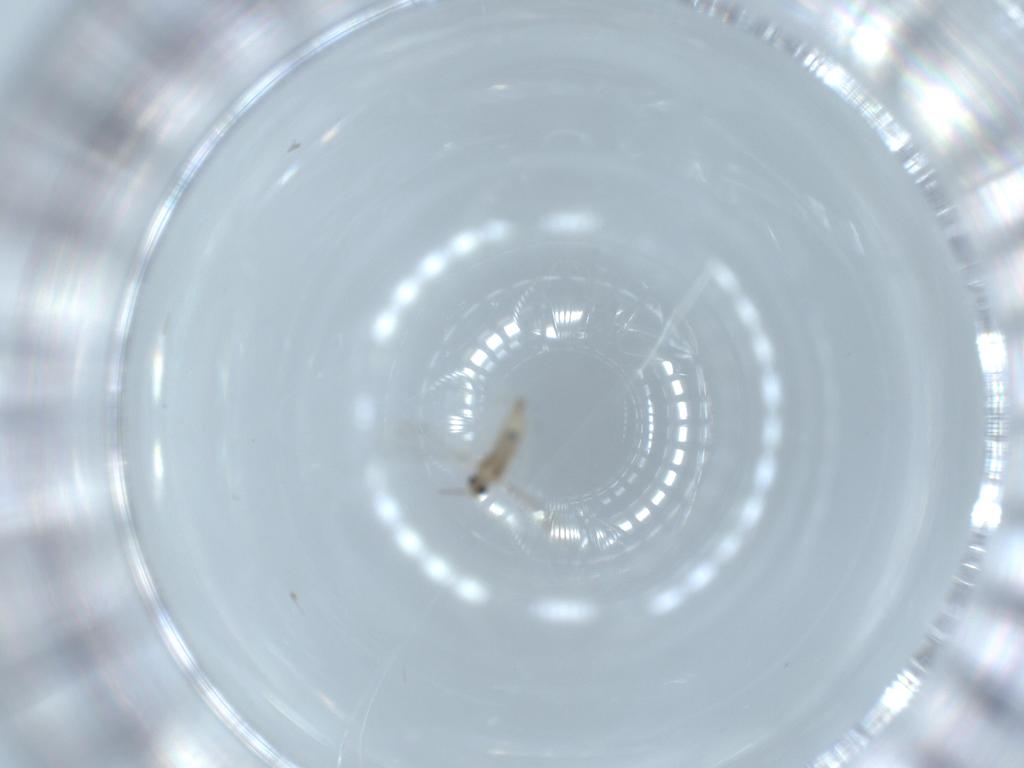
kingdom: Animalia
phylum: Arthropoda
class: Insecta
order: Diptera
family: Cecidomyiidae
